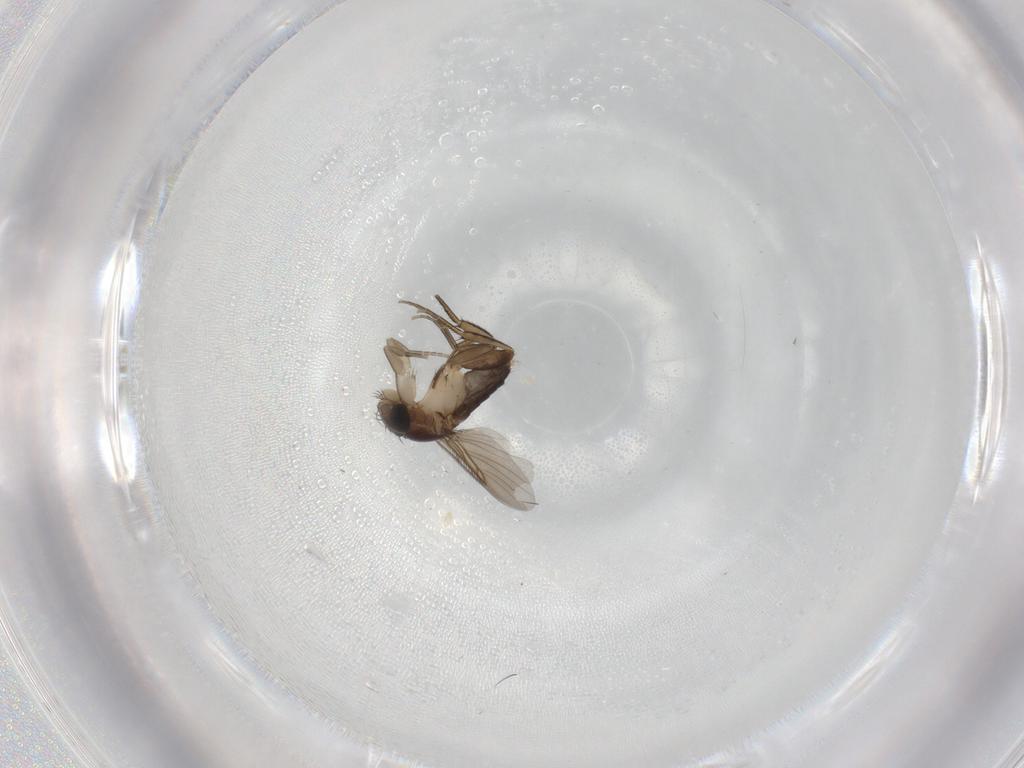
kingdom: Animalia
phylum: Arthropoda
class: Insecta
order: Diptera
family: Phoridae
